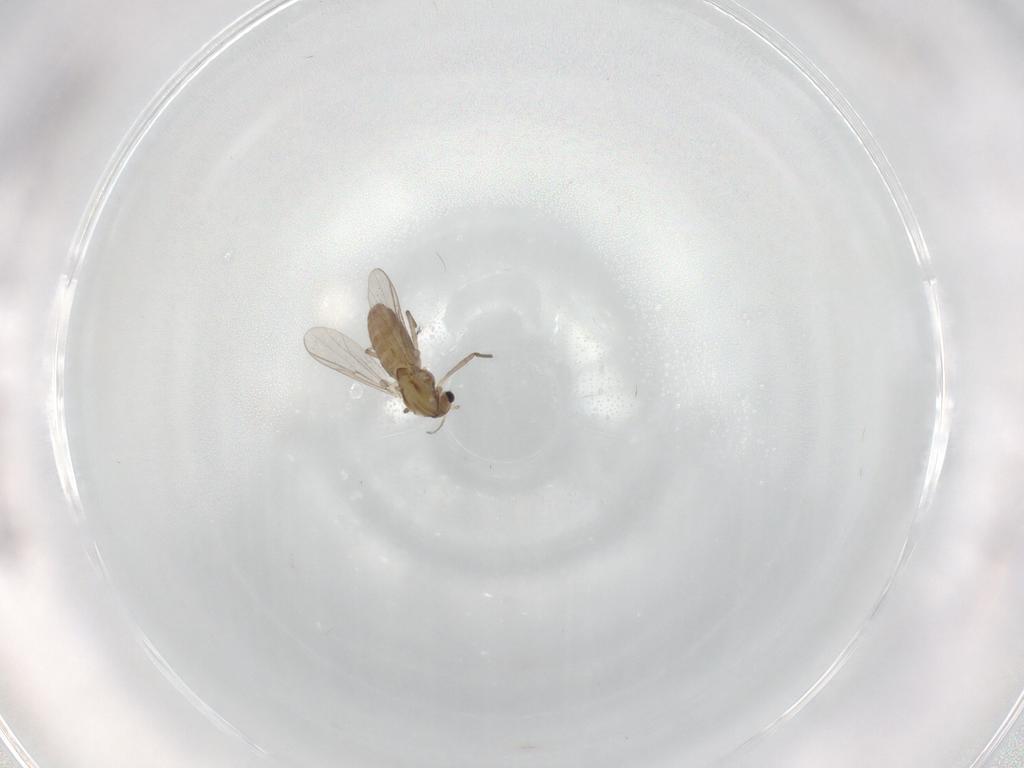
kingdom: Animalia
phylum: Arthropoda
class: Insecta
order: Diptera
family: Chironomidae
